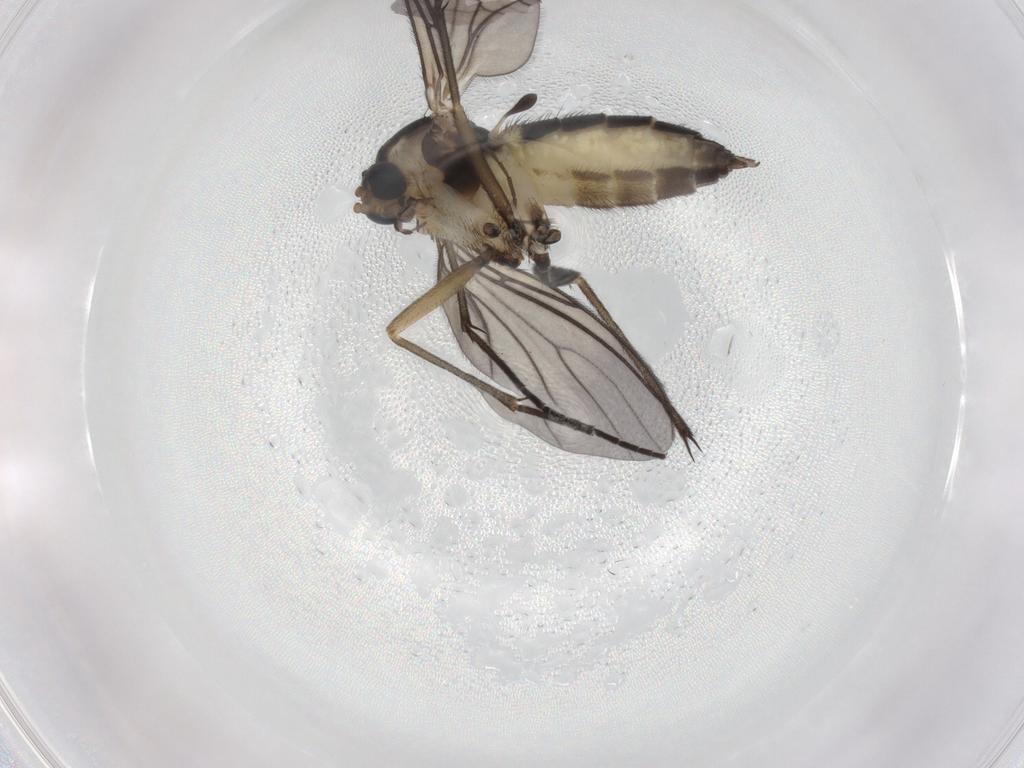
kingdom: Animalia
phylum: Arthropoda
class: Insecta
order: Diptera
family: Sciaridae
